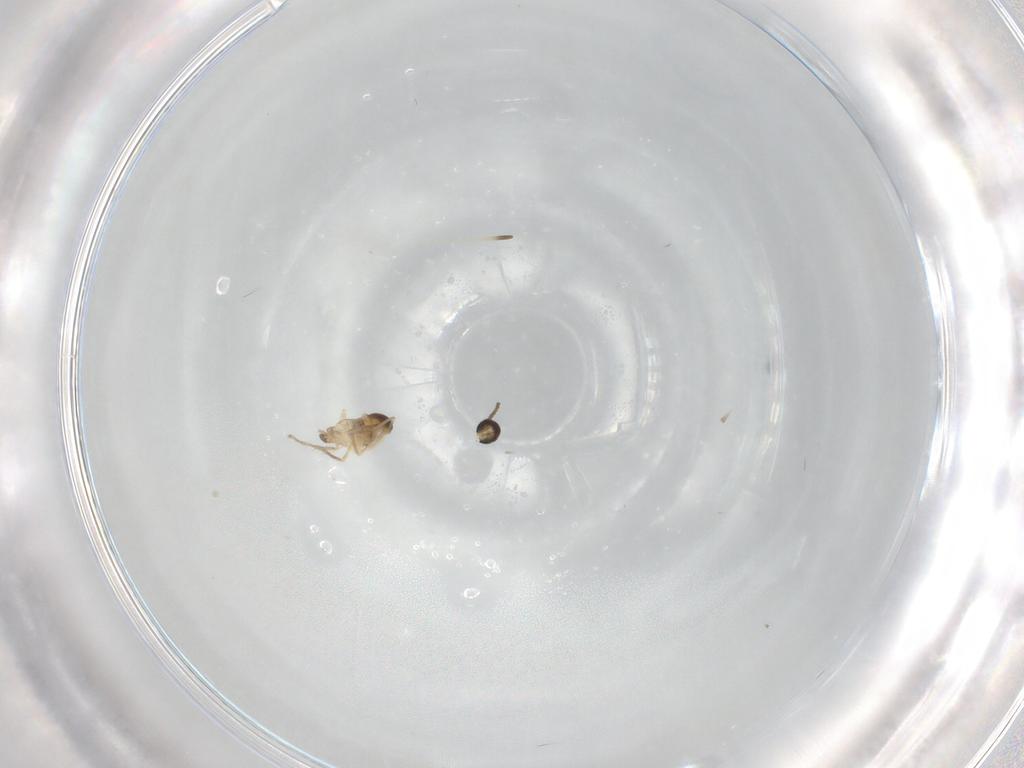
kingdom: Animalia
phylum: Arthropoda
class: Insecta
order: Diptera
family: Cecidomyiidae
